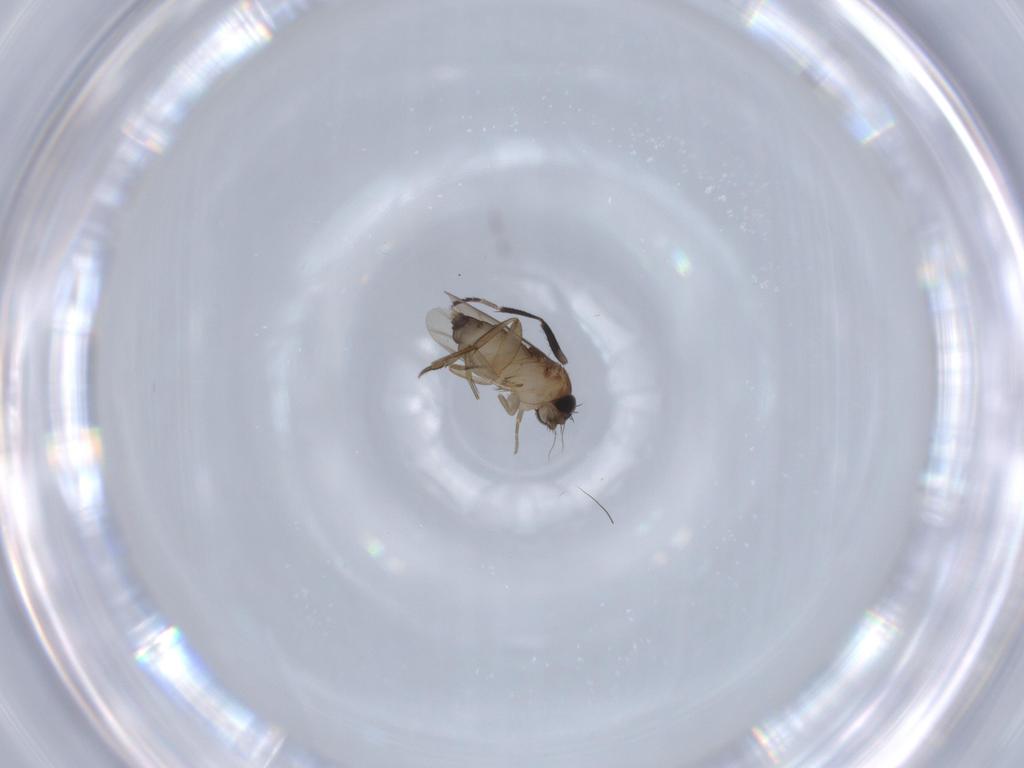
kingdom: Animalia
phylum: Arthropoda
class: Insecta
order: Diptera
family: Phoridae
